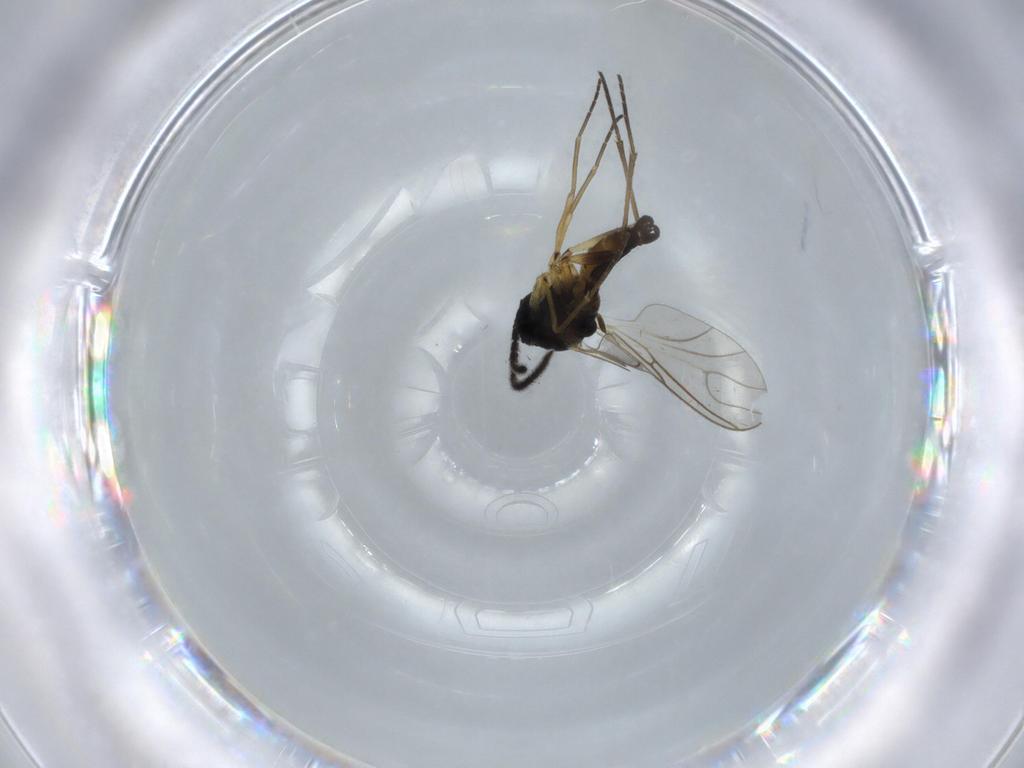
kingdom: Animalia
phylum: Arthropoda
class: Insecta
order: Diptera
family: Sciaridae
